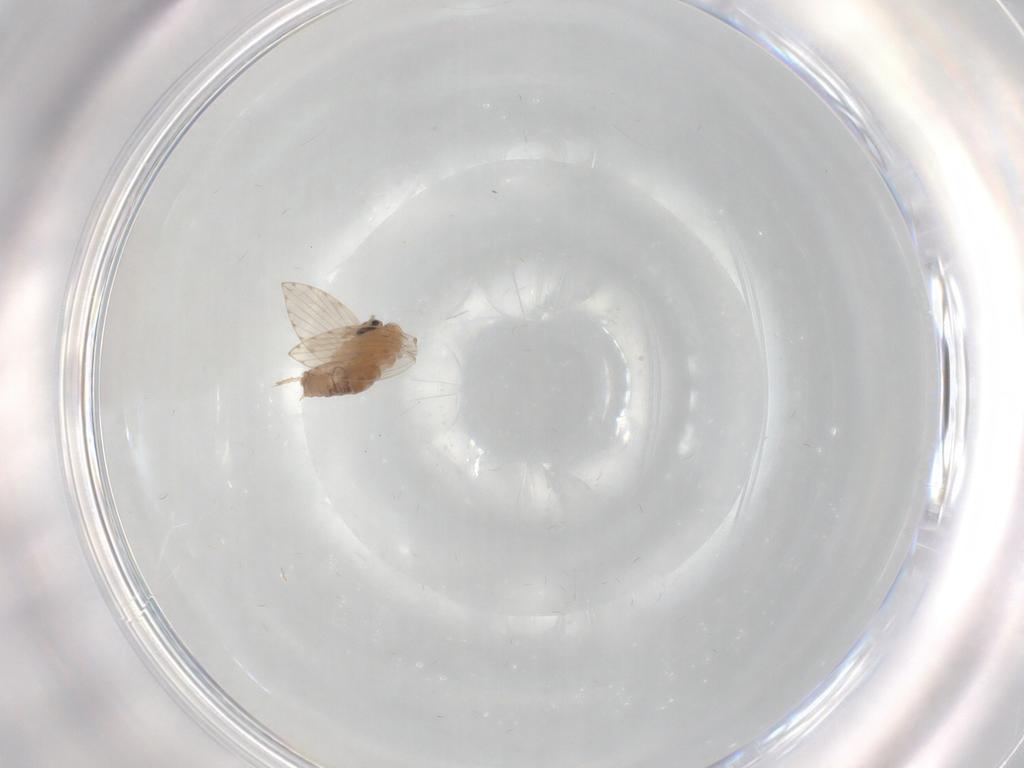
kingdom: Animalia
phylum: Arthropoda
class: Insecta
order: Diptera
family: Psychodidae
